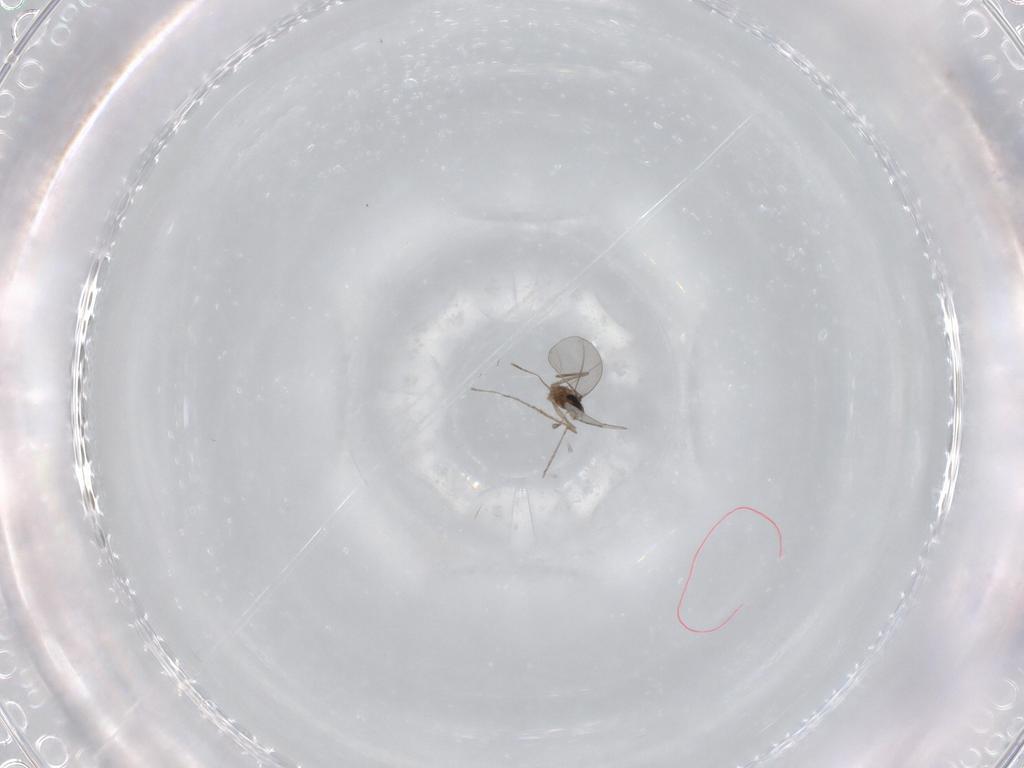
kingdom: Animalia
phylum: Arthropoda
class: Insecta
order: Diptera
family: Cecidomyiidae
